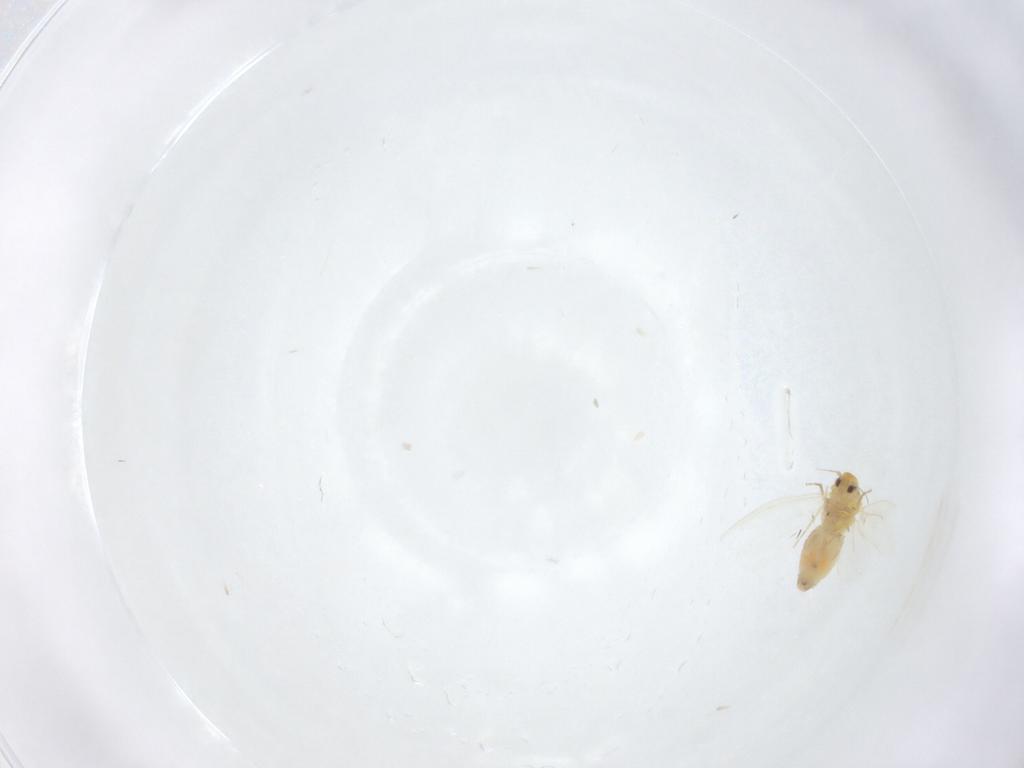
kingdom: Animalia
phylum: Arthropoda
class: Insecta
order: Hemiptera
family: Aleyrodidae
